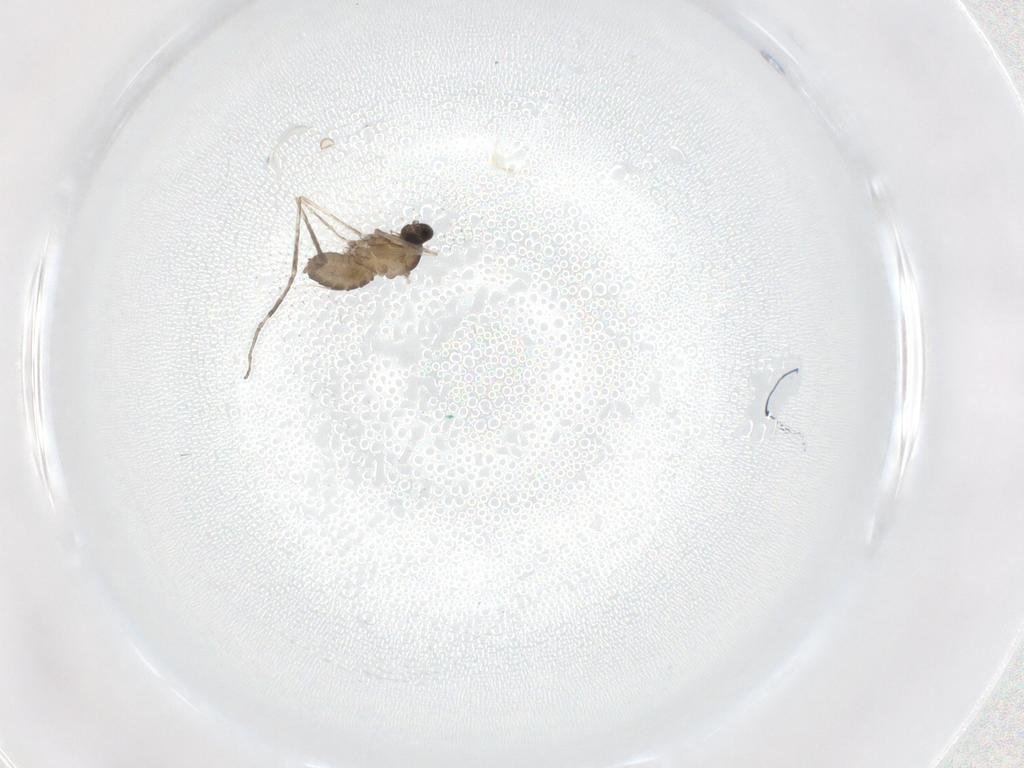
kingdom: Animalia
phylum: Arthropoda
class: Insecta
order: Diptera
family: Cecidomyiidae
